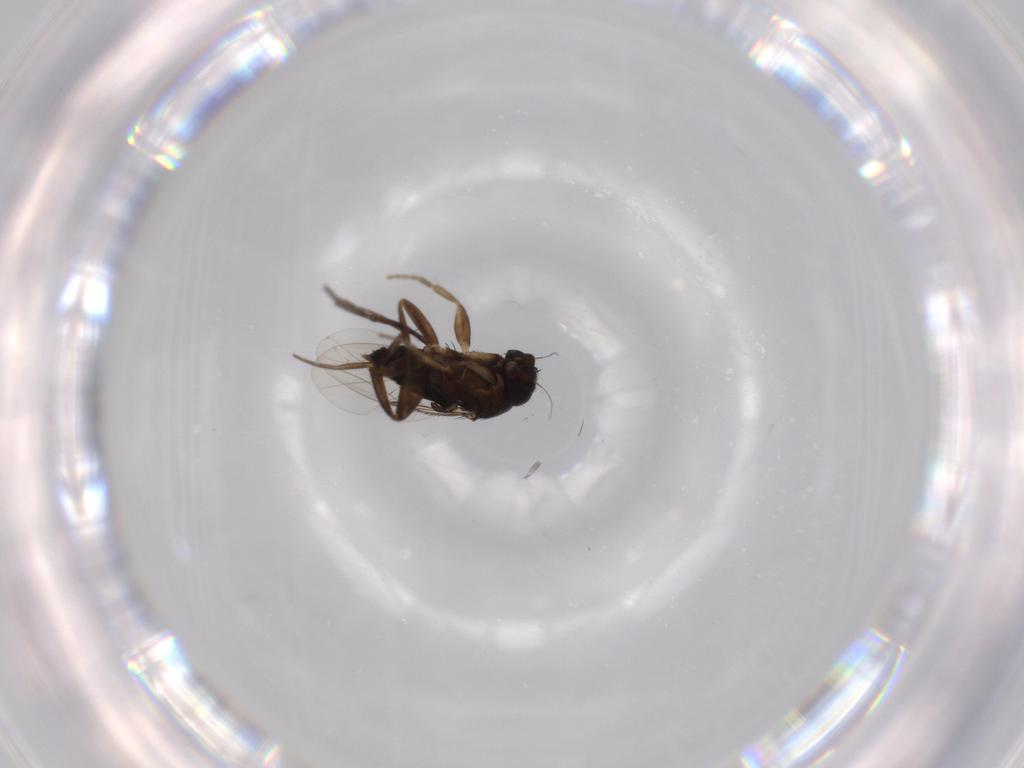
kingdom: Animalia
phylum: Arthropoda
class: Insecta
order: Diptera
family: Phoridae
